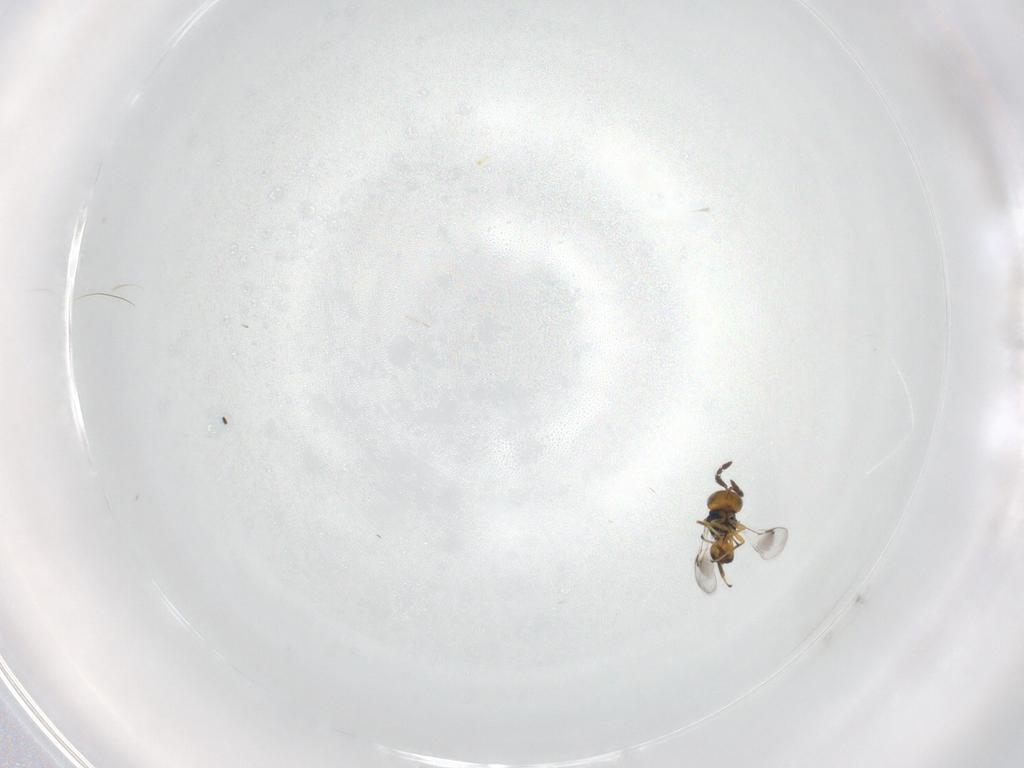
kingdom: Animalia
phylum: Arthropoda
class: Insecta
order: Hymenoptera
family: Eulophidae
